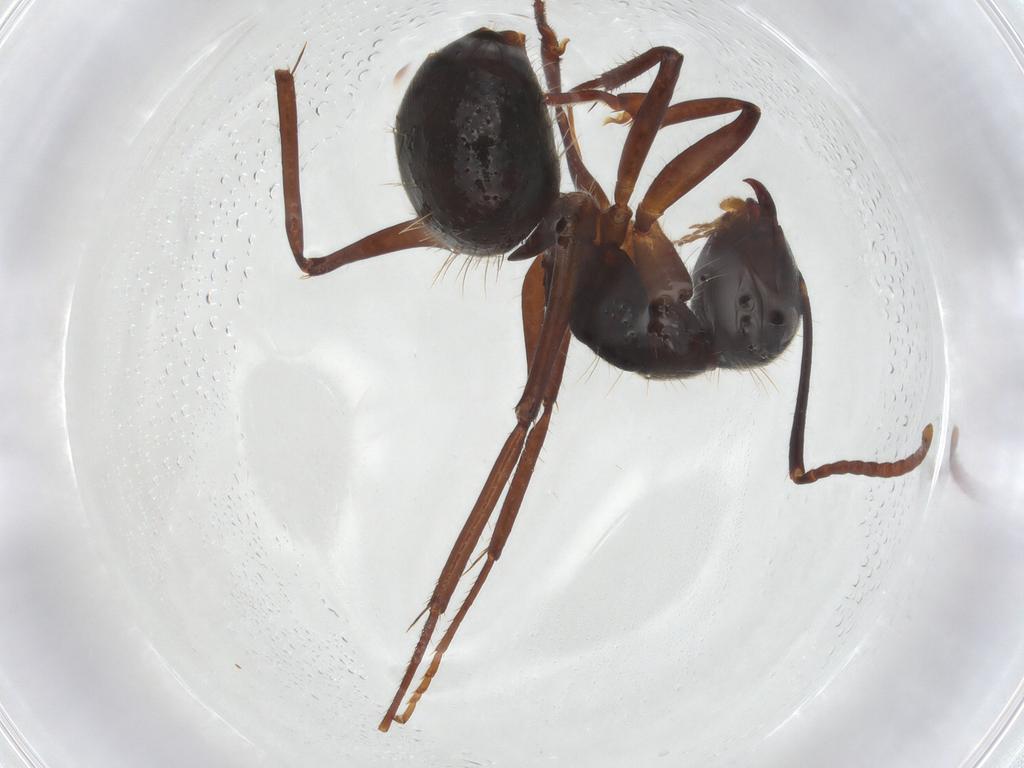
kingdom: Animalia
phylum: Arthropoda
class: Insecta
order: Hymenoptera
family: Formicidae
